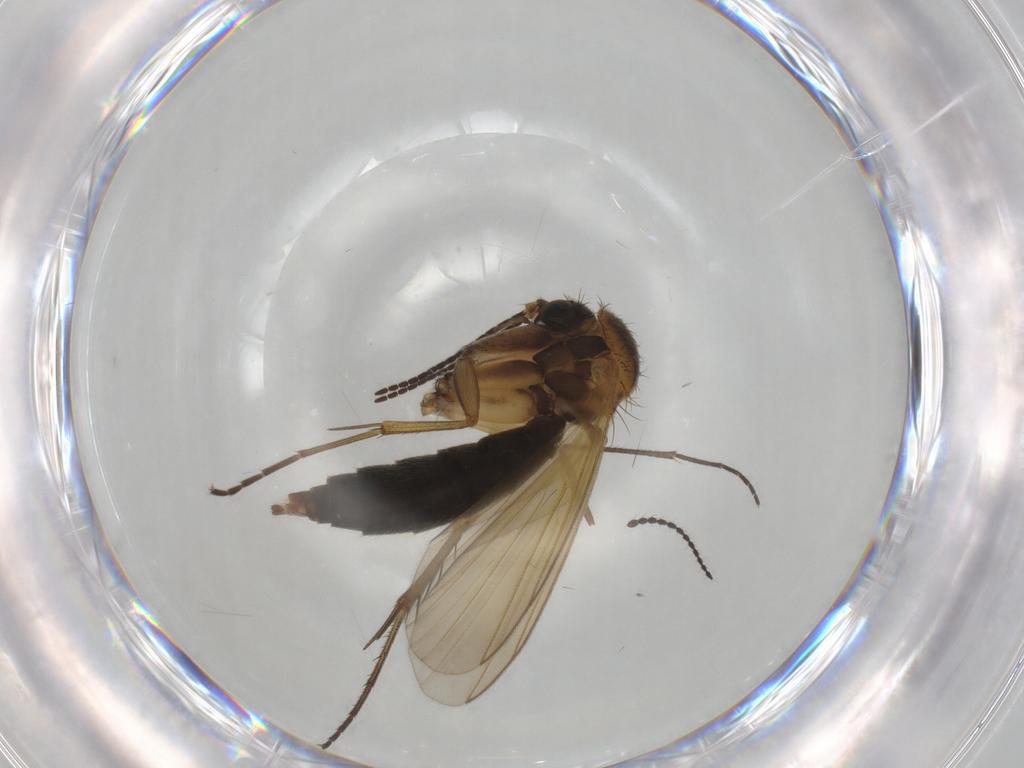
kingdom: Animalia
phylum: Arthropoda
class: Insecta
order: Diptera
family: Mycetophilidae
